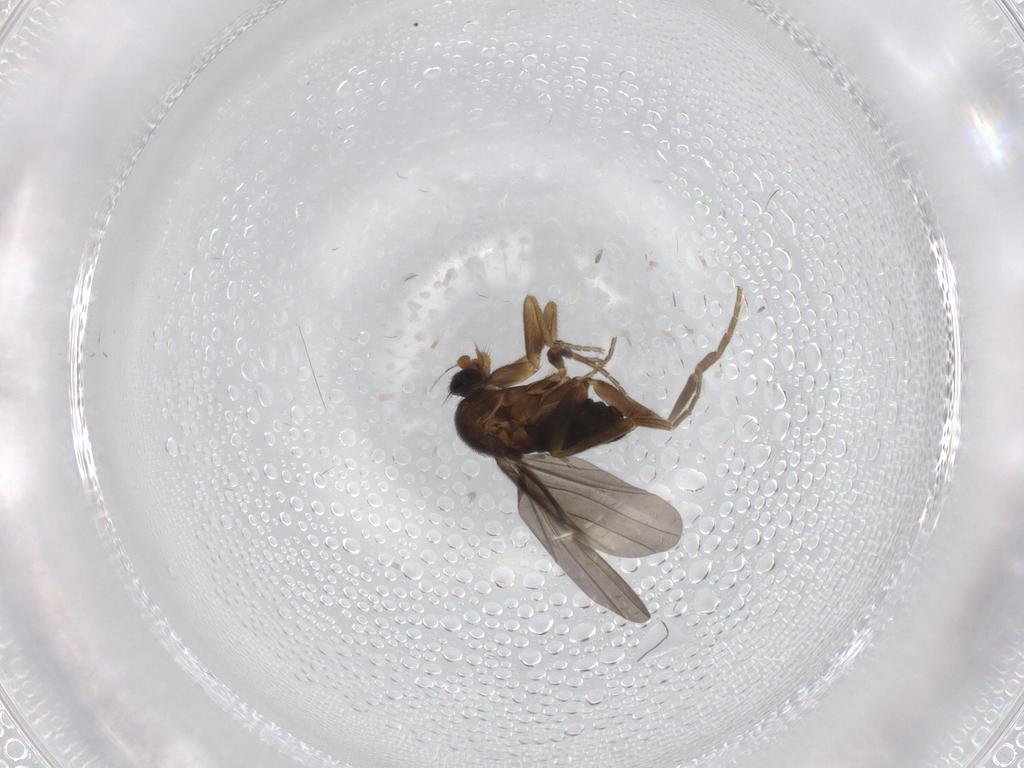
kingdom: Animalia
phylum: Arthropoda
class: Insecta
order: Diptera
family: Phoridae
